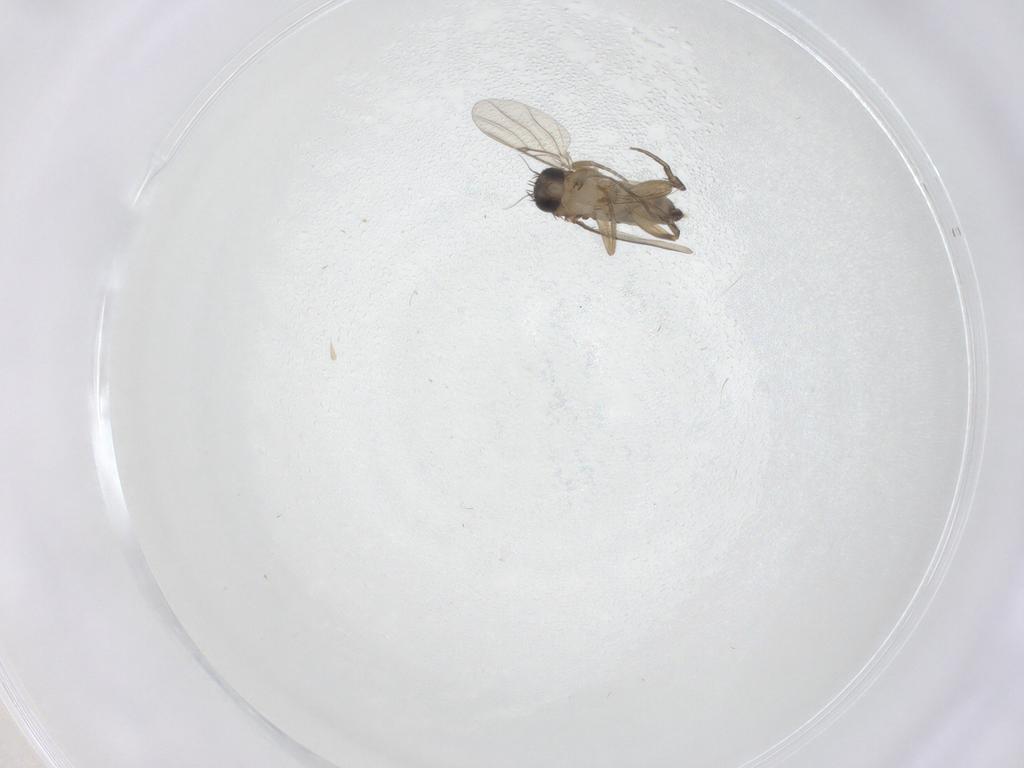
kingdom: Animalia
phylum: Arthropoda
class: Insecta
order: Diptera
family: Phoridae
